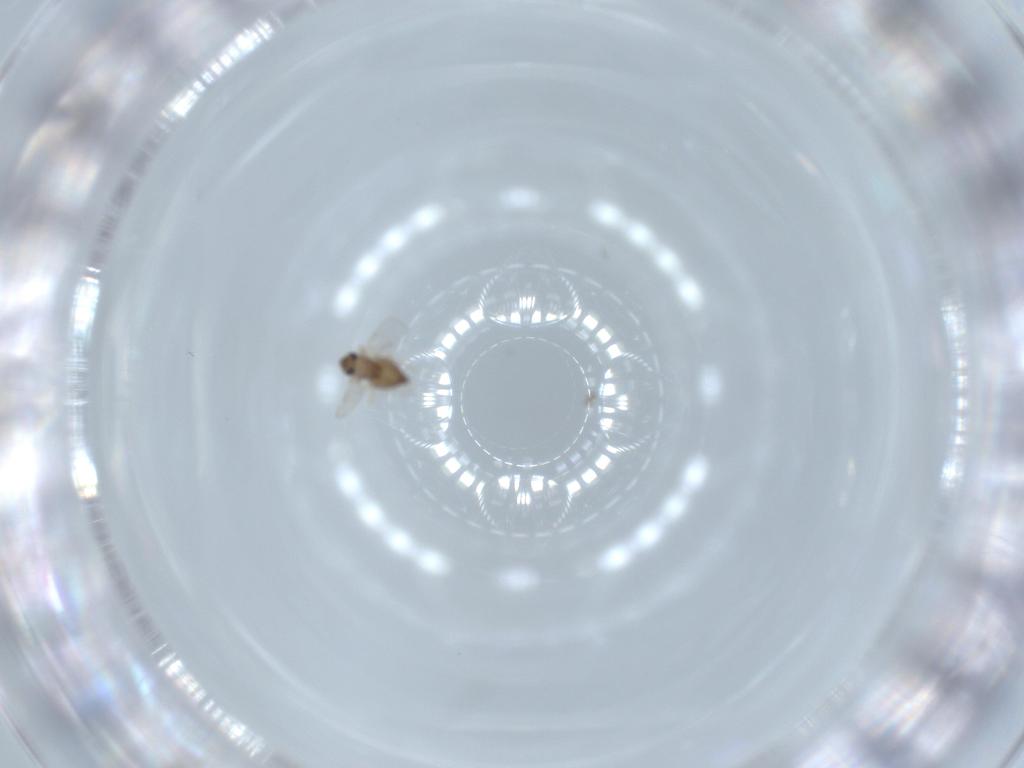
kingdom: Animalia
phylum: Arthropoda
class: Insecta
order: Diptera
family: Chironomidae
